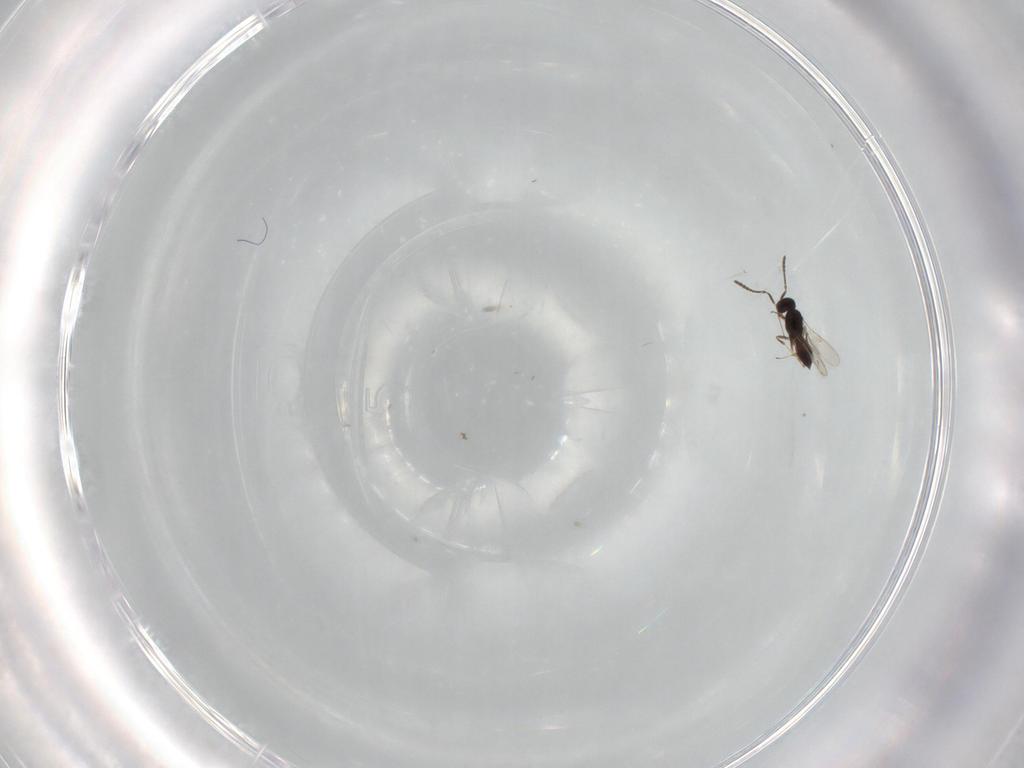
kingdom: Animalia
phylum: Arthropoda
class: Insecta
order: Hymenoptera
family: Scelionidae
